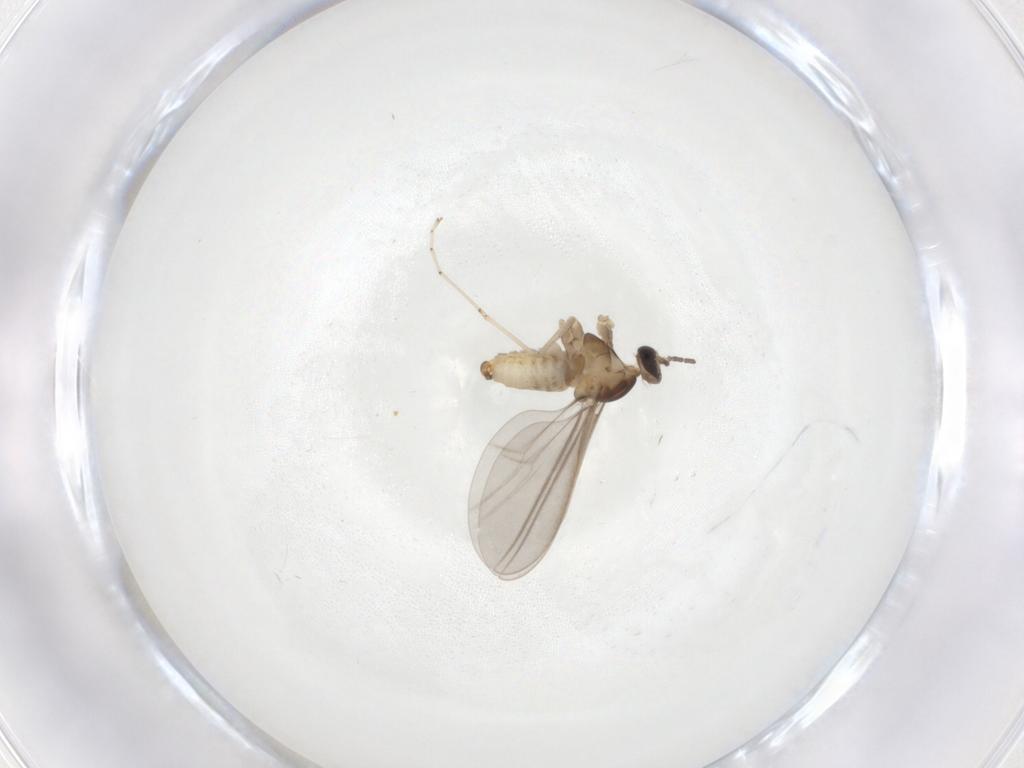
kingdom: Animalia
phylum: Arthropoda
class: Insecta
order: Diptera
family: Cecidomyiidae
